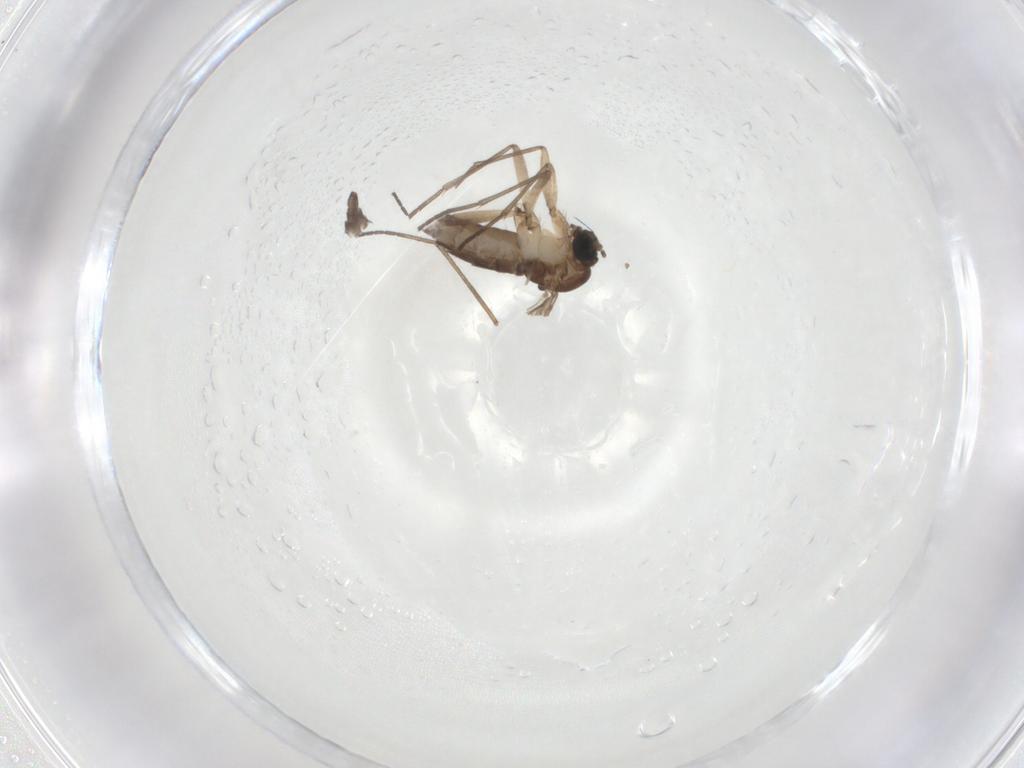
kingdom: Animalia
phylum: Arthropoda
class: Insecta
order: Diptera
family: Sciaridae
